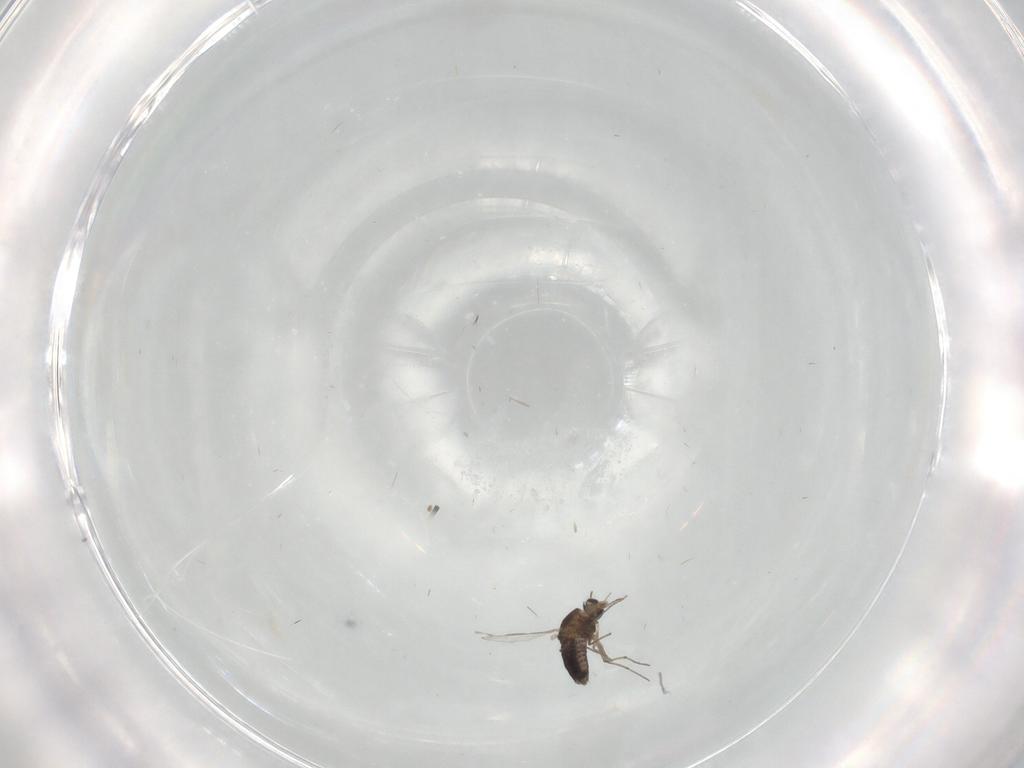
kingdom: Animalia
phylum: Arthropoda
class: Insecta
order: Diptera
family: Chironomidae
